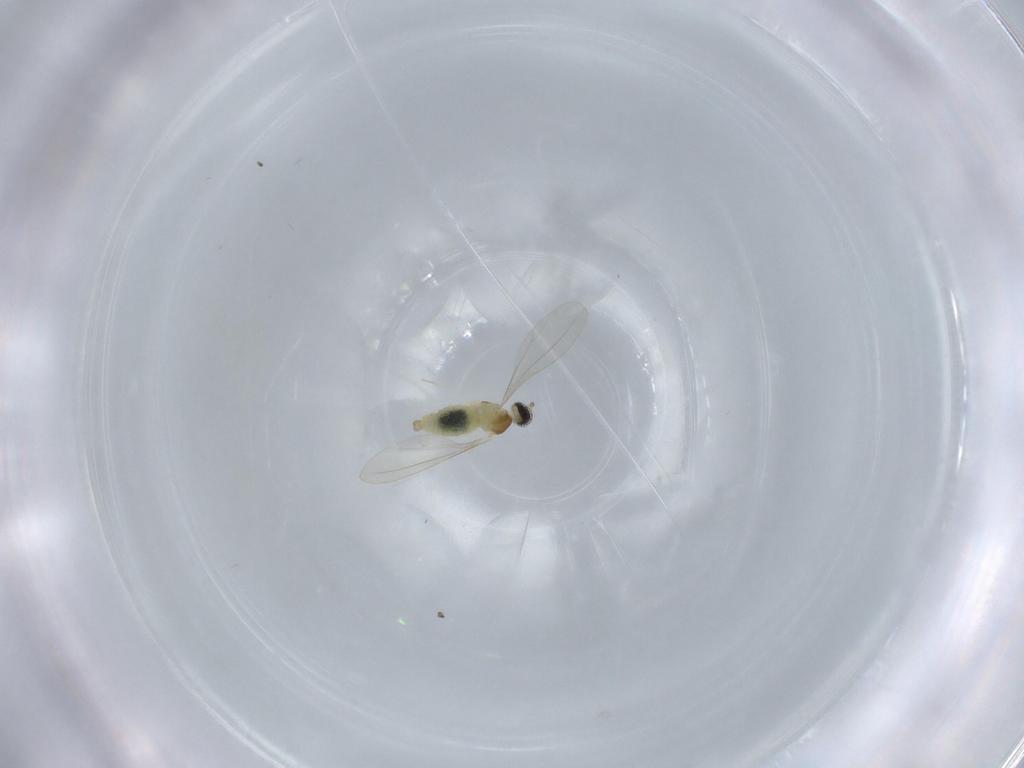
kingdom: Animalia
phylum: Arthropoda
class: Insecta
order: Diptera
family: Cecidomyiidae
